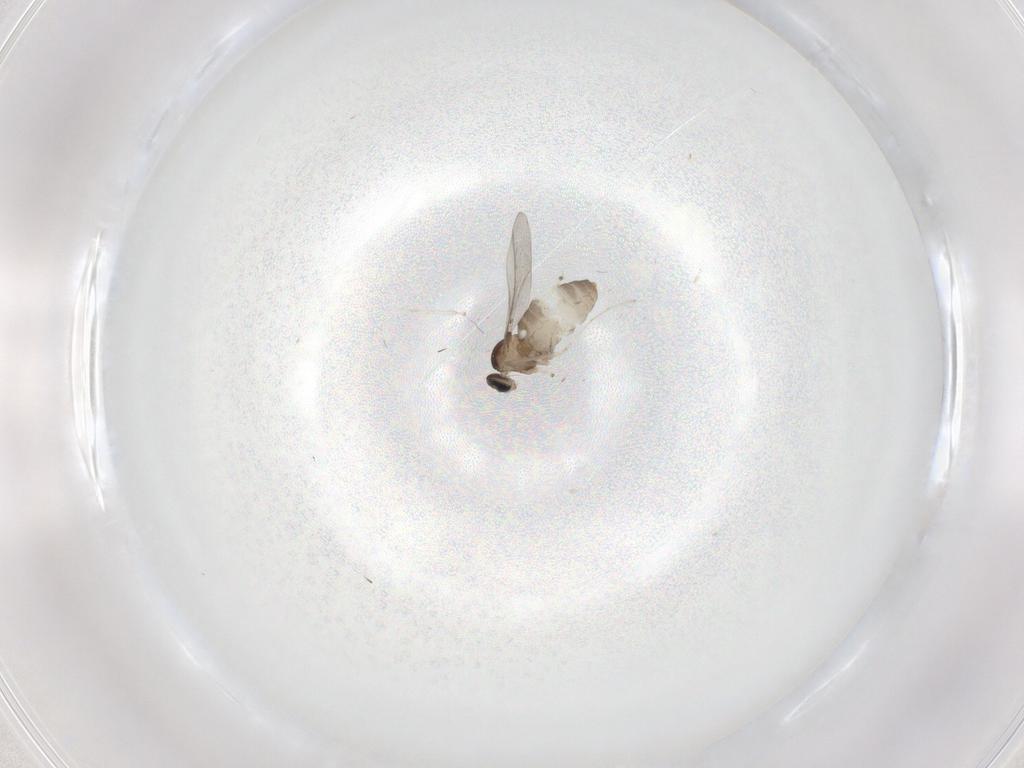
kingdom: Animalia
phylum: Arthropoda
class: Insecta
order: Diptera
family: Cecidomyiidae
